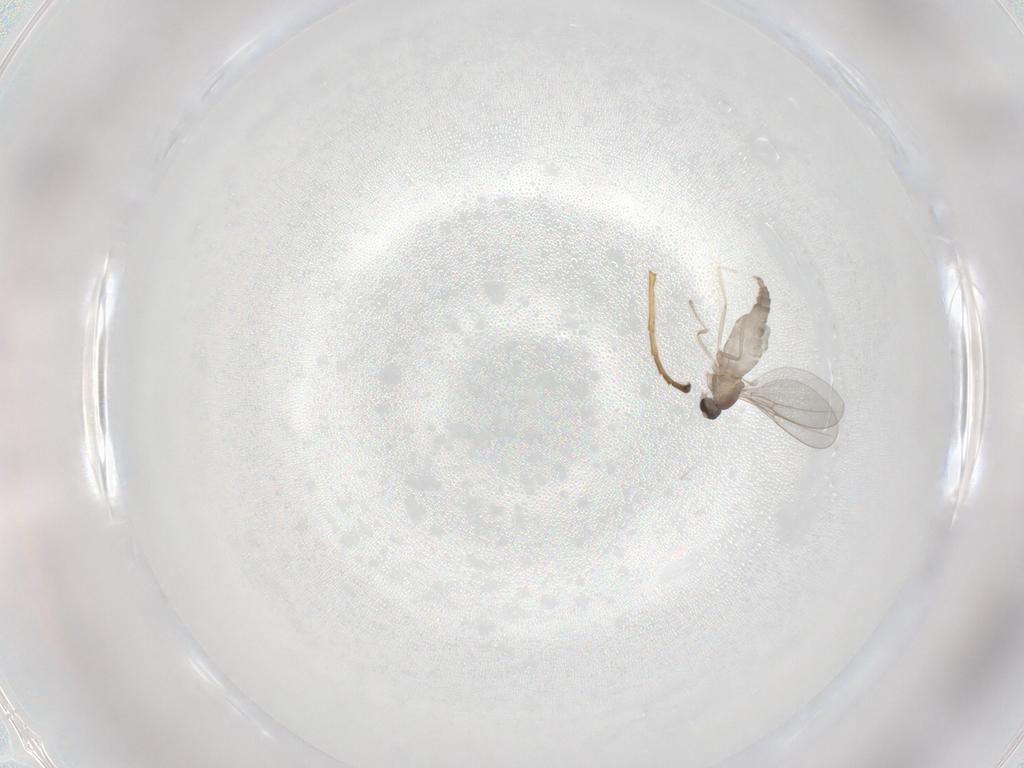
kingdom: Animalia
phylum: Arthropoda
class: Insecta
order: Diptera
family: Cecidomyiidae
